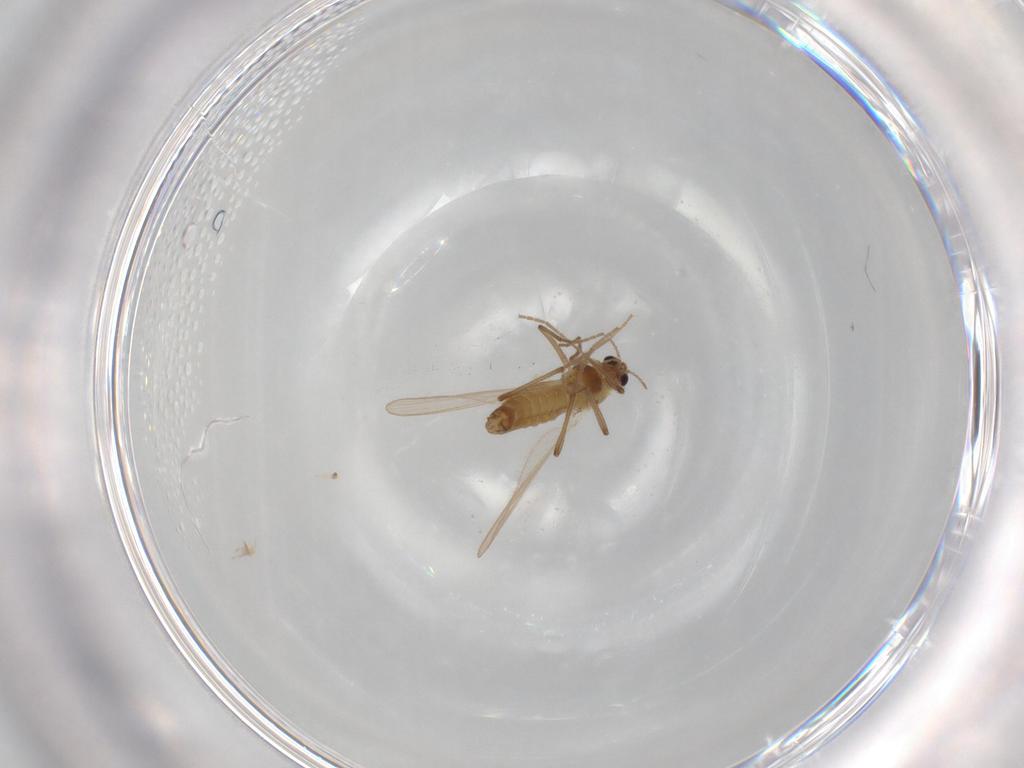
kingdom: Animalia
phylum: Arthropoda
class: Insecta
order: Diptera
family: Chironomidae
